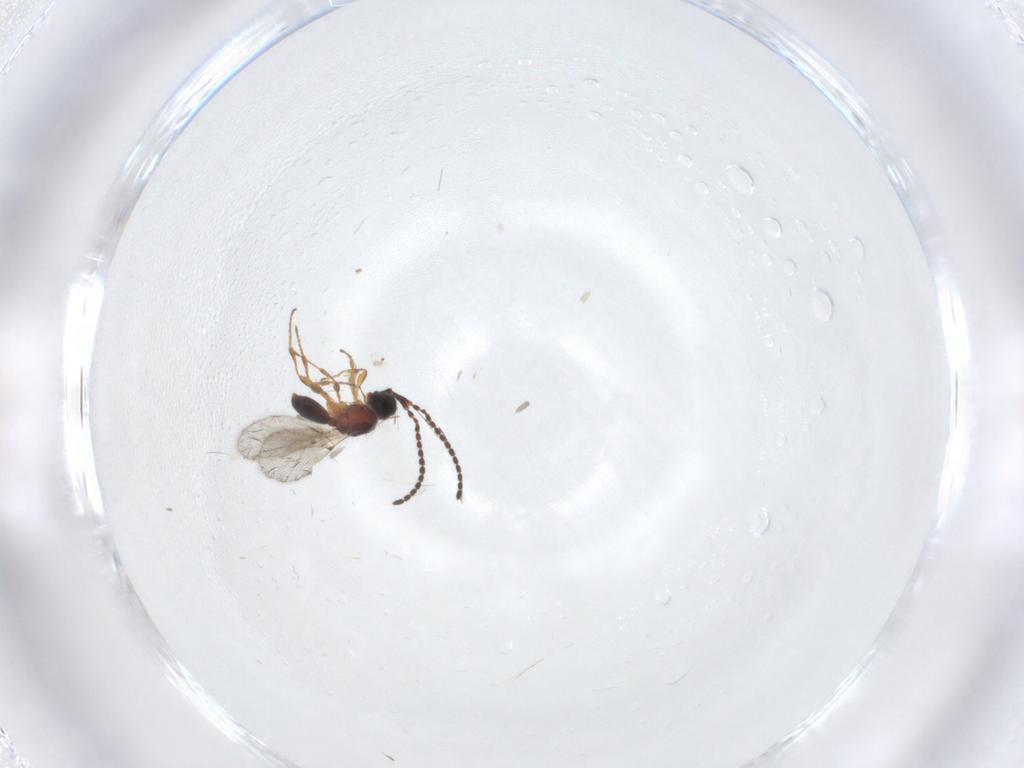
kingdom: Animalia
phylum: Arthropoda
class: Insecta
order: Hymenoptera
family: Diapriidae
